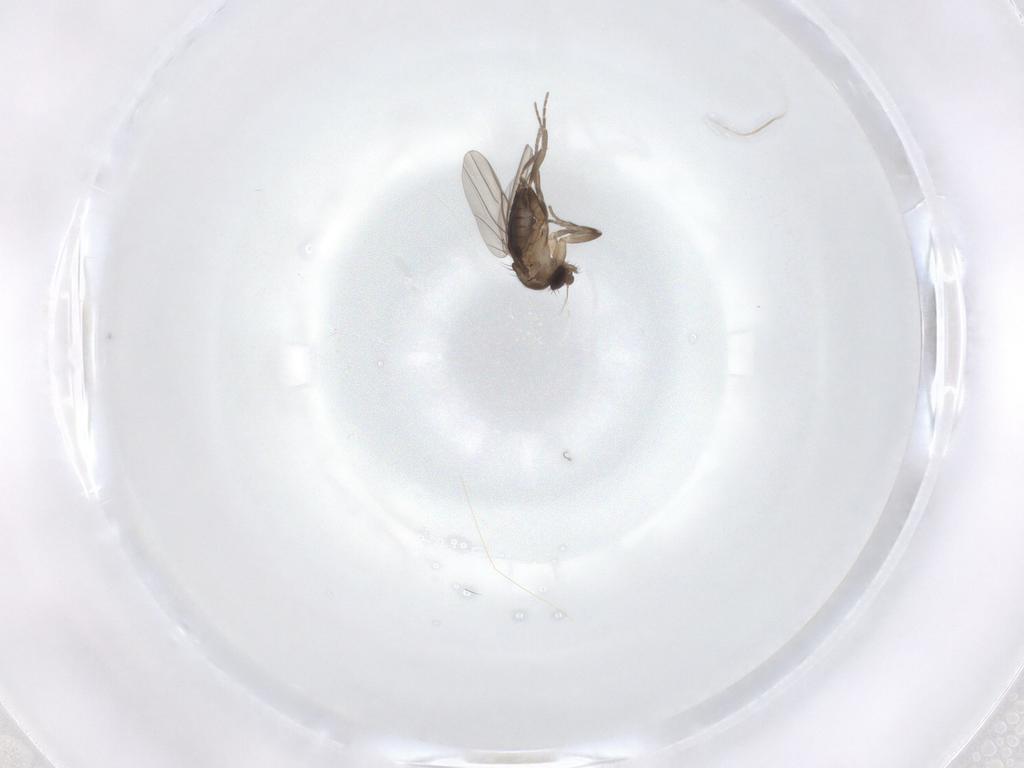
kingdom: Animalia
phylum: Arthropoda
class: Insecta
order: Diptera
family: Phoridae
